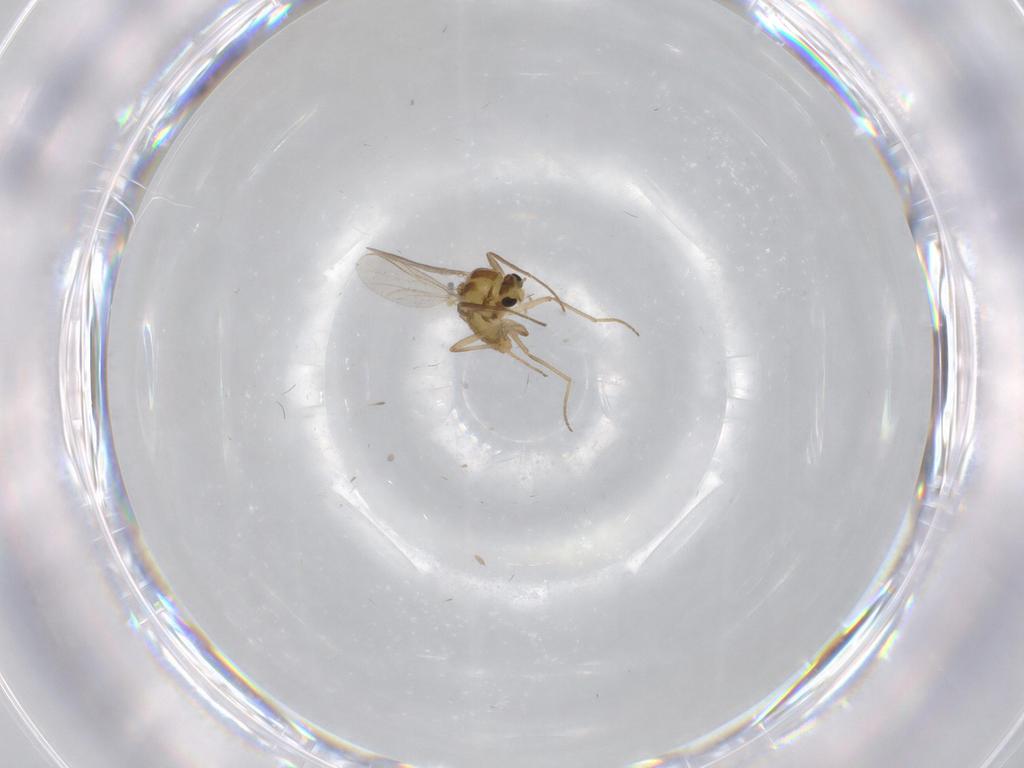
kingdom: Animalia
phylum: Arthropoda
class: Insecta
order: Diptera
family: Chironomidae
